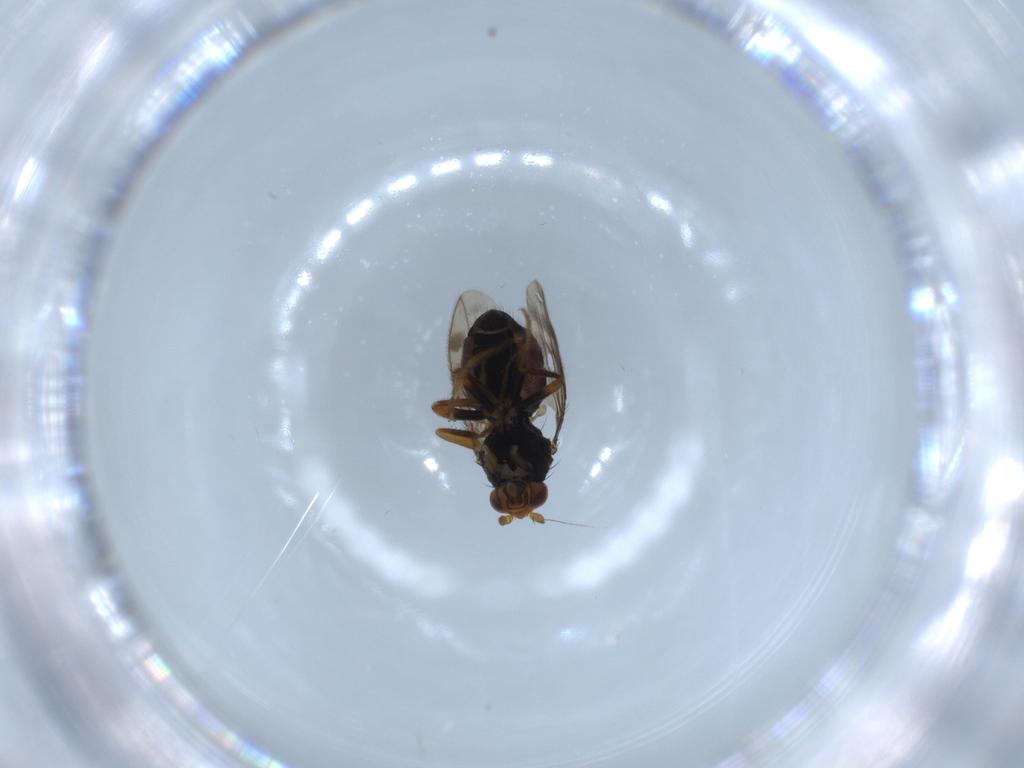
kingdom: Animalia
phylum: Arthropoda
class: Insecta
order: Diptera
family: Sphaeroceridae
